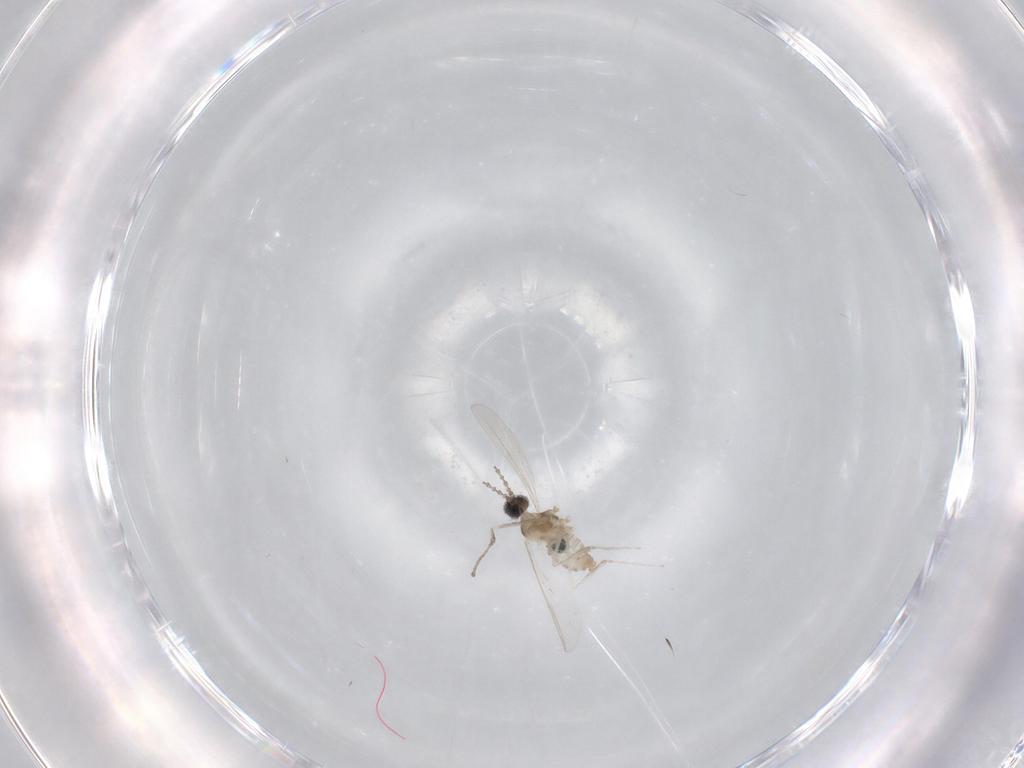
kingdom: Animalia
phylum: Arthropoda
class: Insecta
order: Diptera
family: Cecidomyiidae
